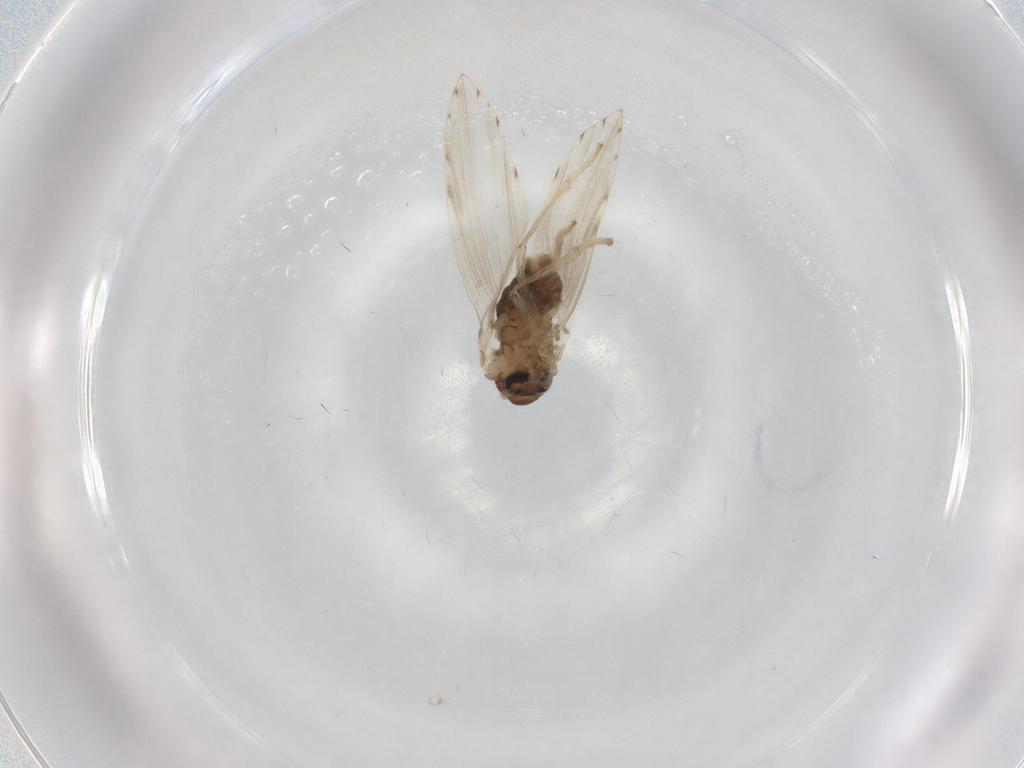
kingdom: Animalia
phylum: Arthropoda
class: Insecta
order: Diptera
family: Chironomidae
